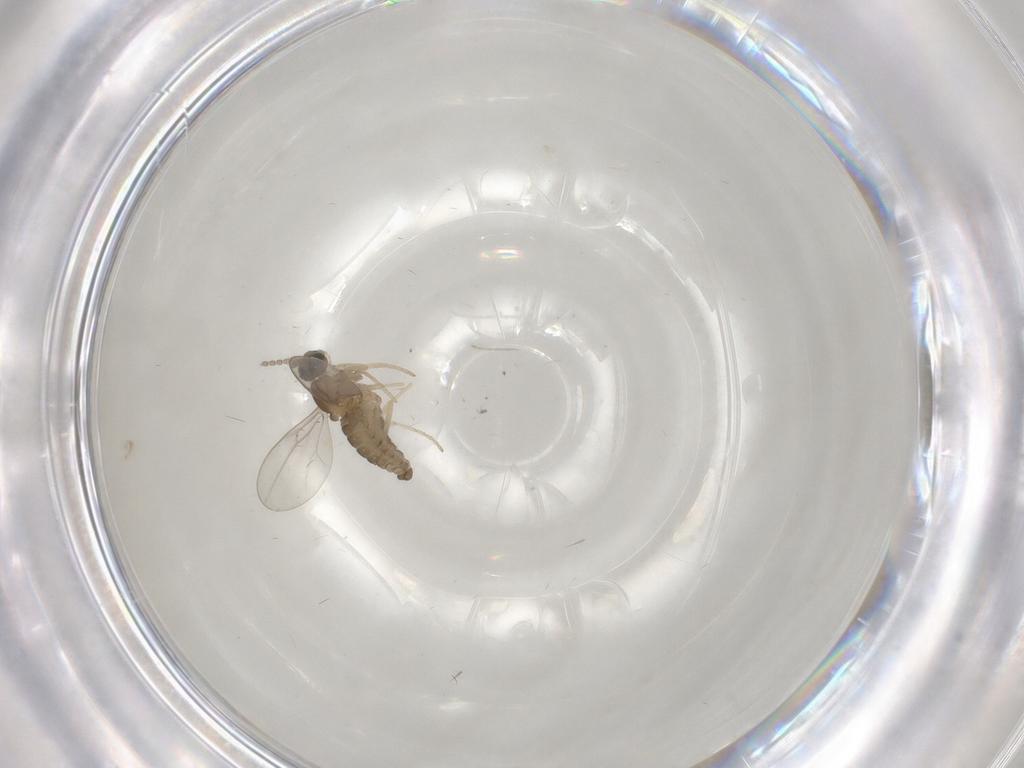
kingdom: Animalia
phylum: Arthropoda
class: Insecta
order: Diptera
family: Cecidomyiidae
